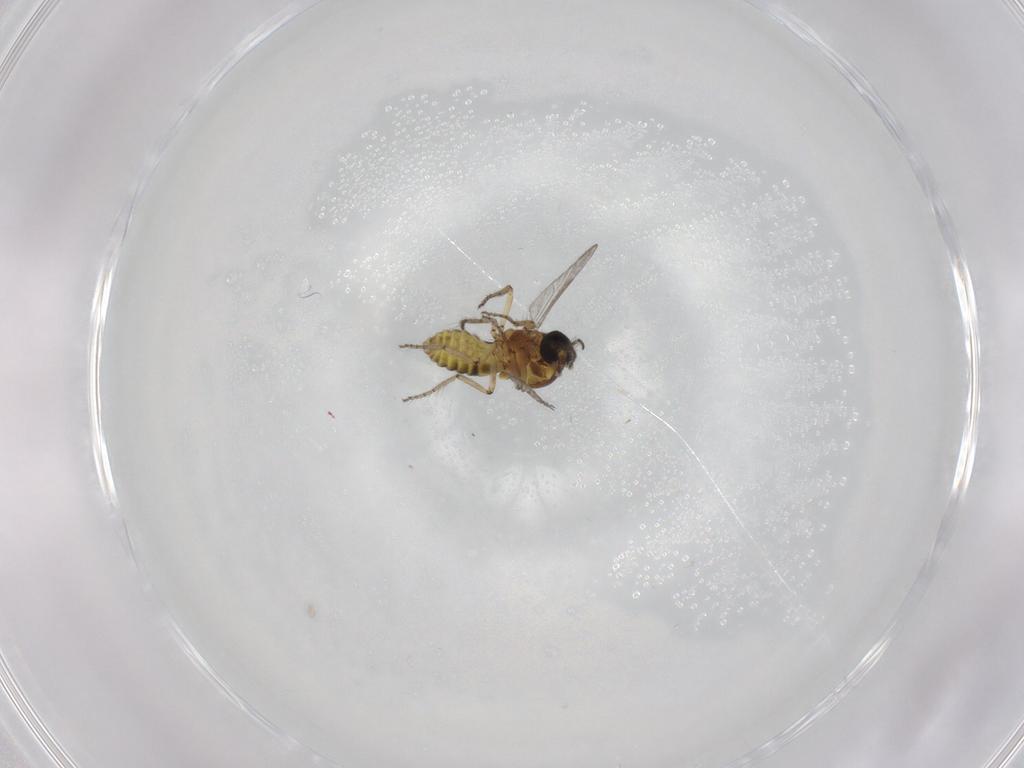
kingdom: Animalia
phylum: Arthropoda
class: Insecta
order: Diptera
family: Ceratopogonidae
